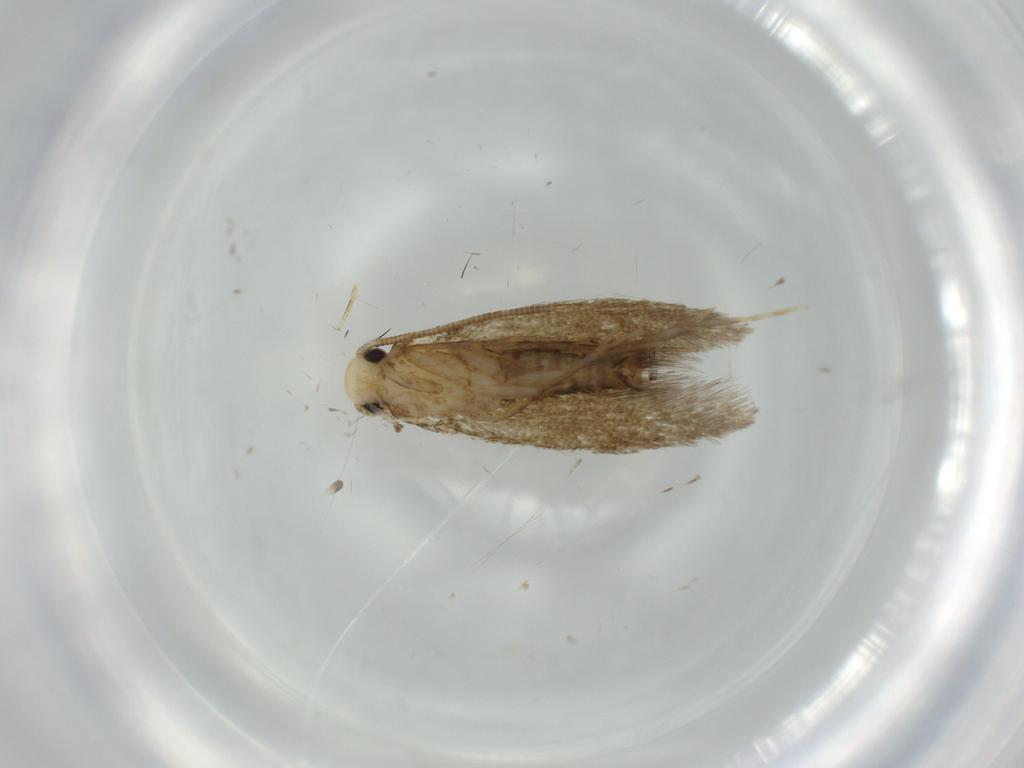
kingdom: Animalia
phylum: Arthropoda
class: Insecta
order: Lepidoptera
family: Tineidae
